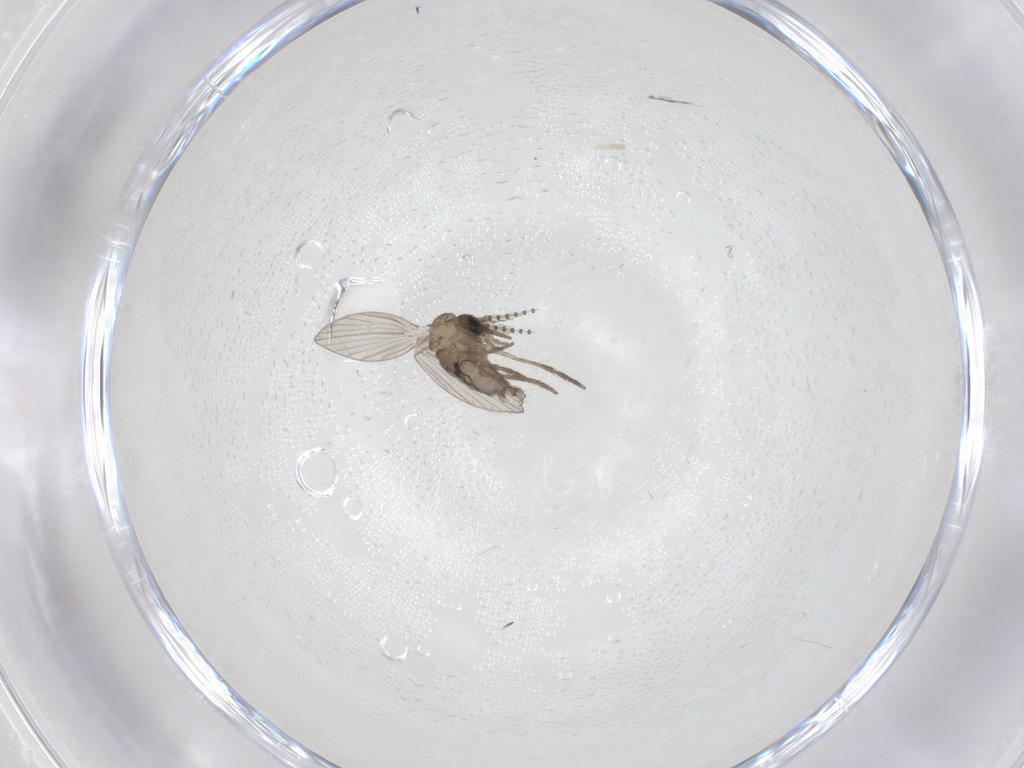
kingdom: Animalia
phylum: Arthropoda
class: Insecta
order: Diptera
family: Psychodidae
